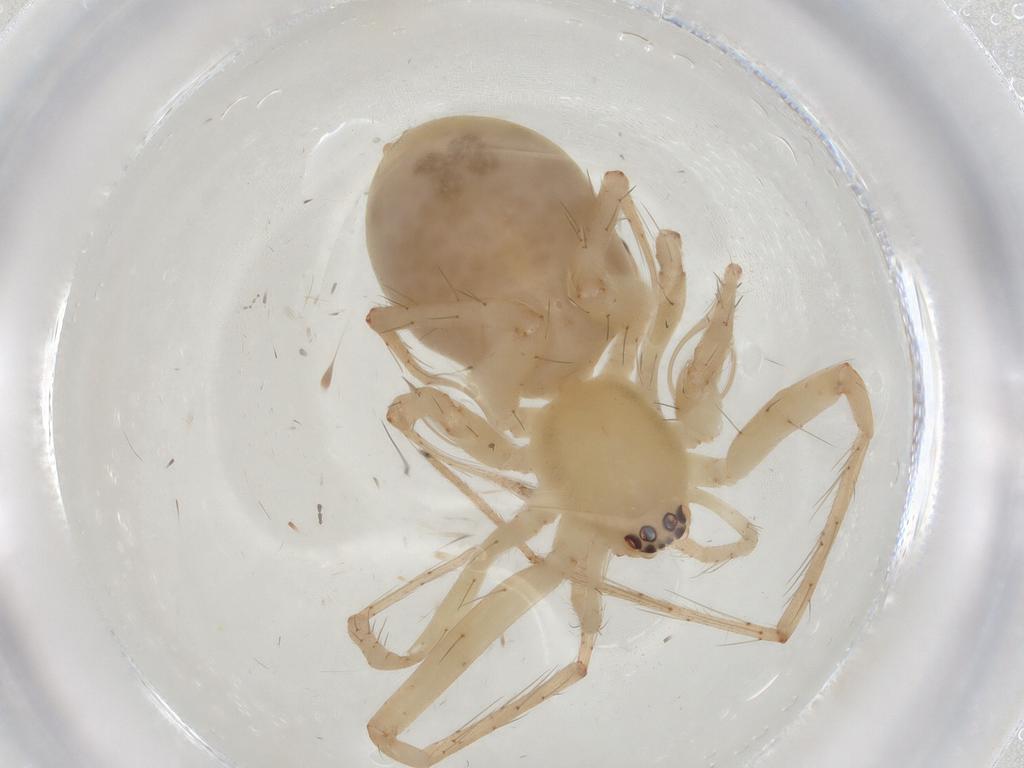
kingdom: Animalia
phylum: Arthropoda
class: Arachnida
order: Araneae
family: Anyphaenidae
